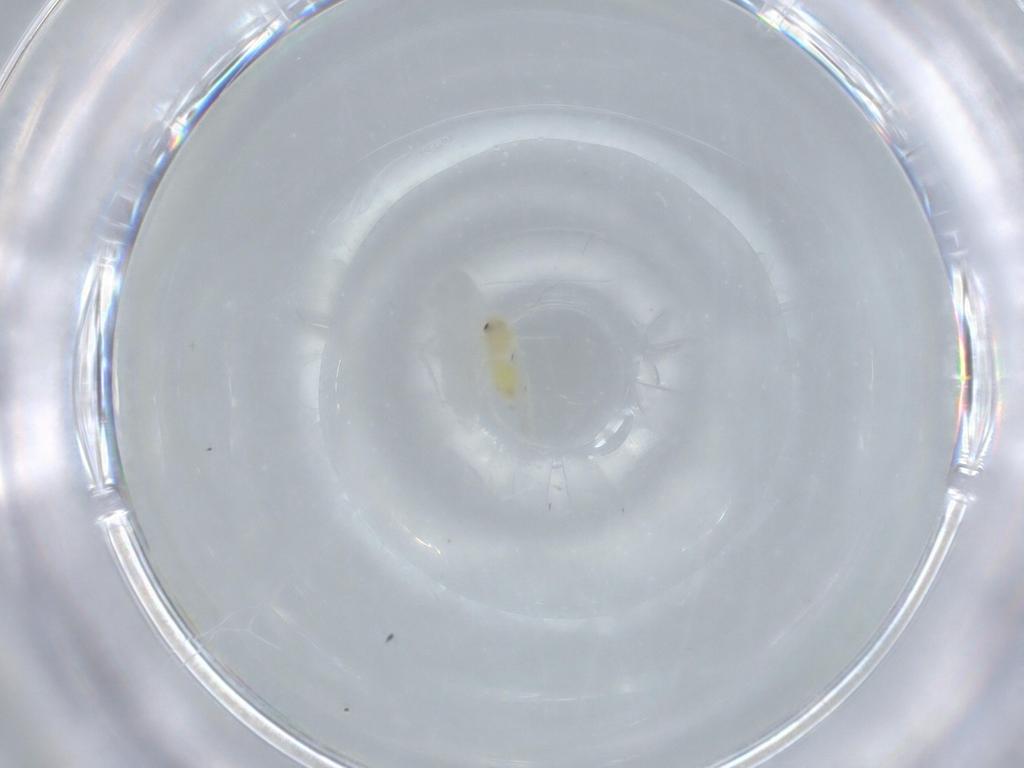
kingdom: Animalia
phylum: Arthropoda
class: Insecta
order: Hemiptera
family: Aleyrodidae
